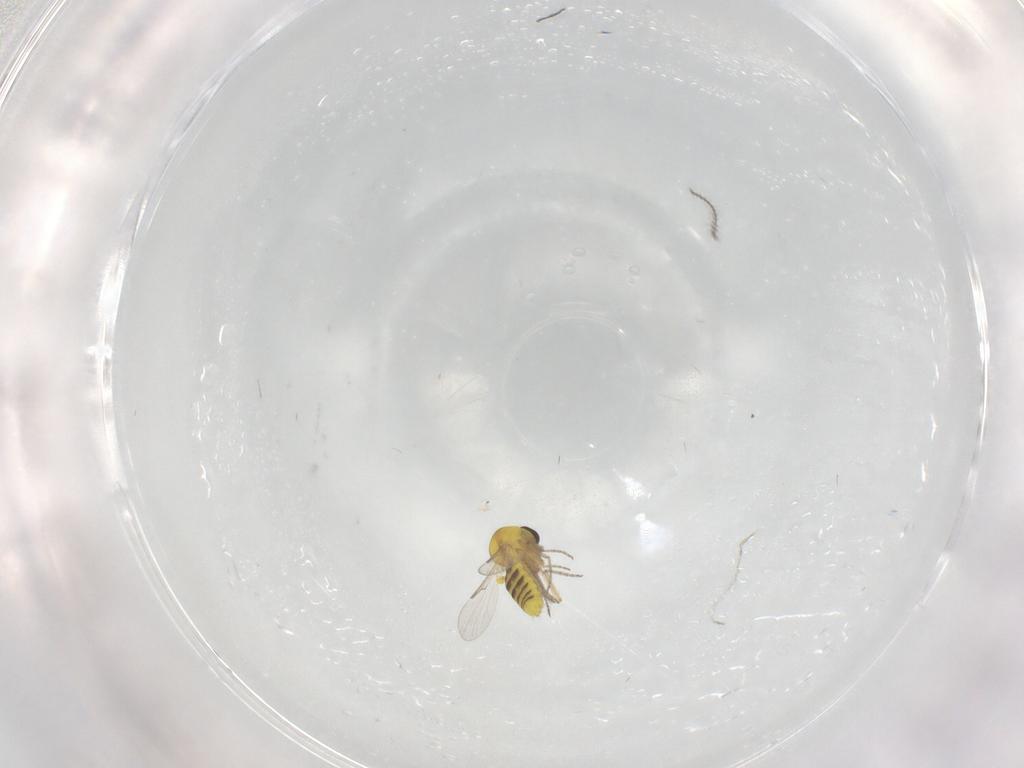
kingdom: Animalia
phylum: Arthropoda
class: Insecta
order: Diptera
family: Ceratopogonidae
